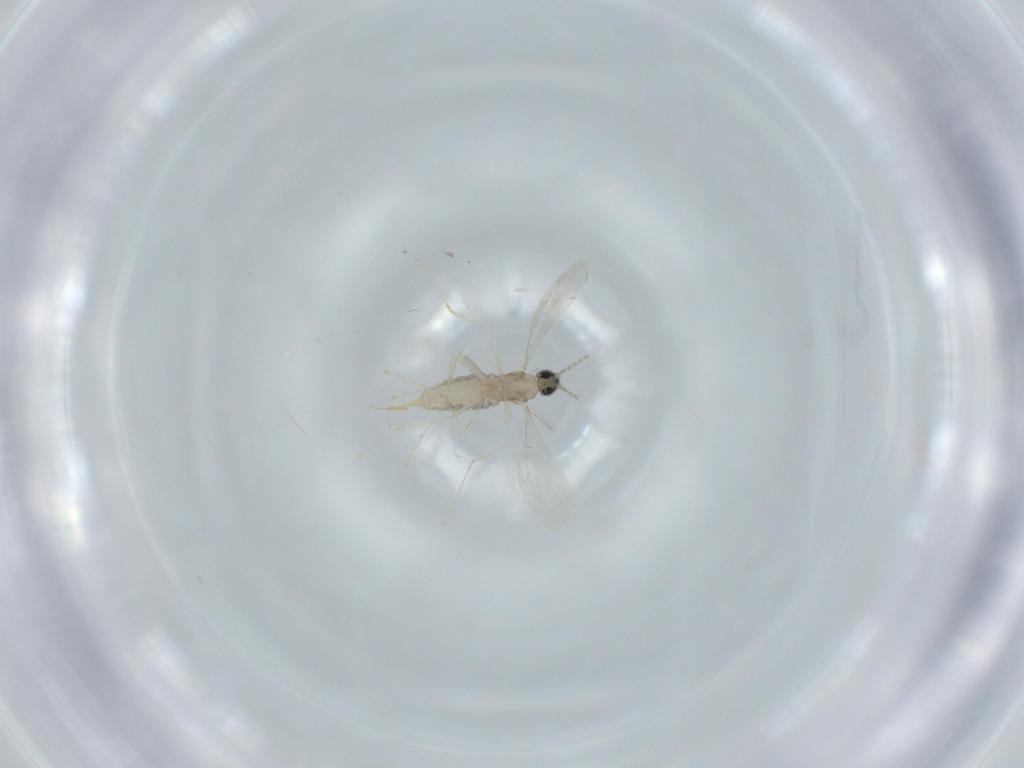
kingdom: Animalia
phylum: Arthropoda
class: Insecta
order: Diptera
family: Cecidomyiidae
